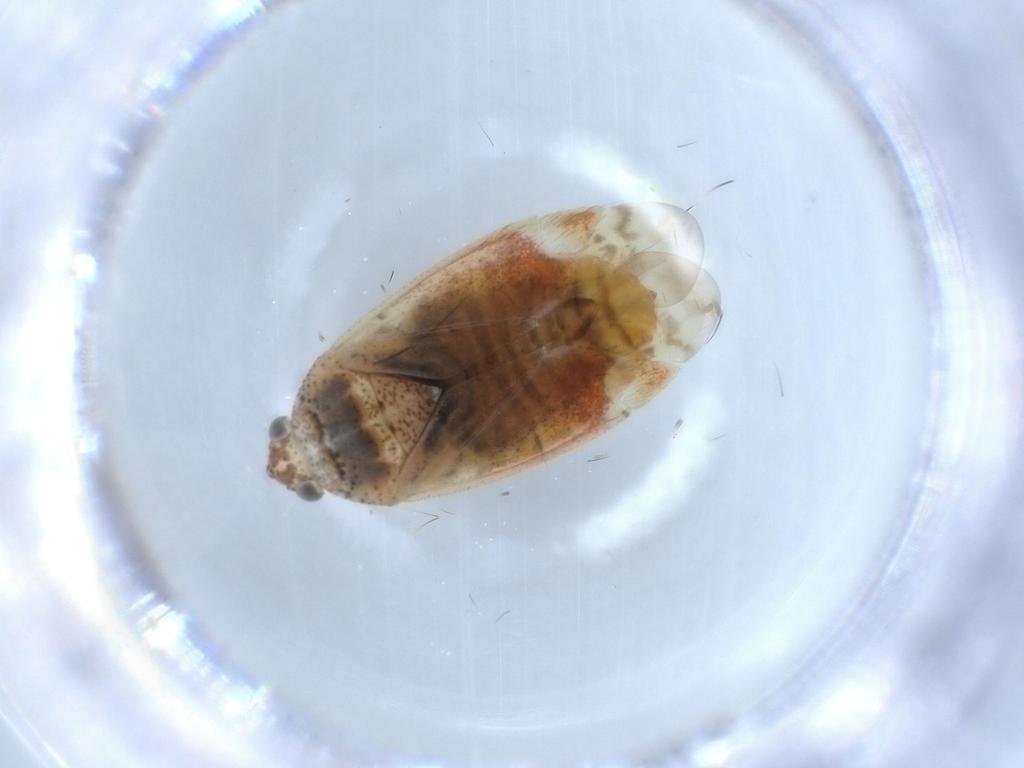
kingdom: Animalia
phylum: Arthropoda
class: Insecta
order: Hemiptera
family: Miridae
